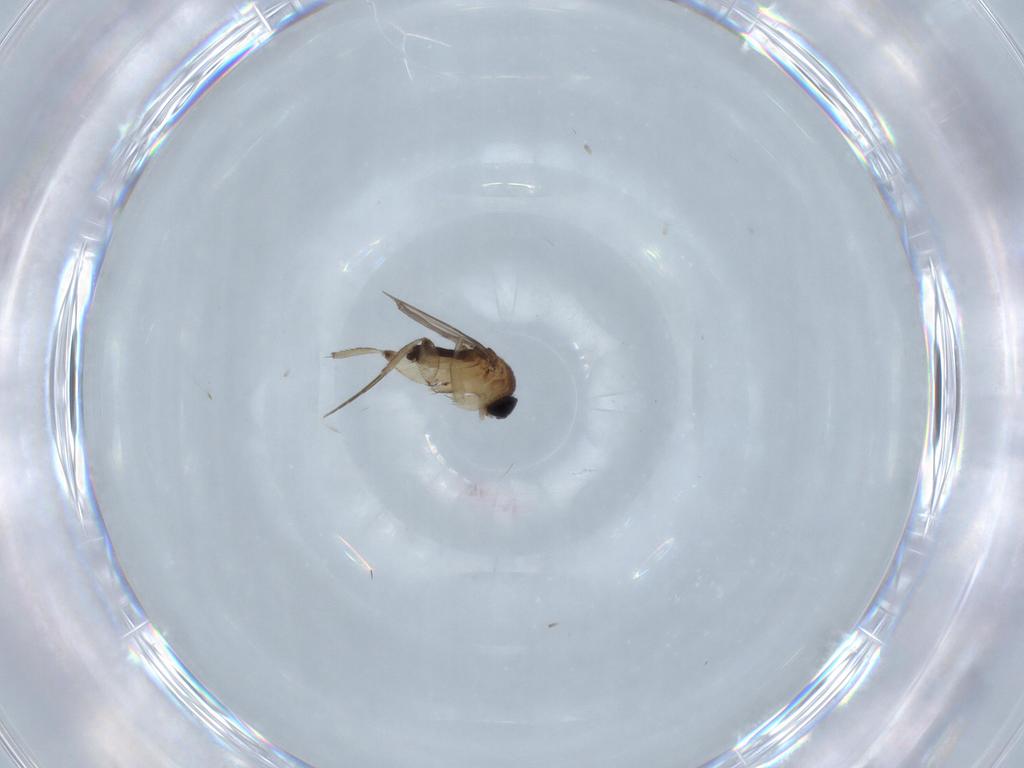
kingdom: Animalia
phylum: Arthropoda
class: Insecta
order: Diptera
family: Phoridae
